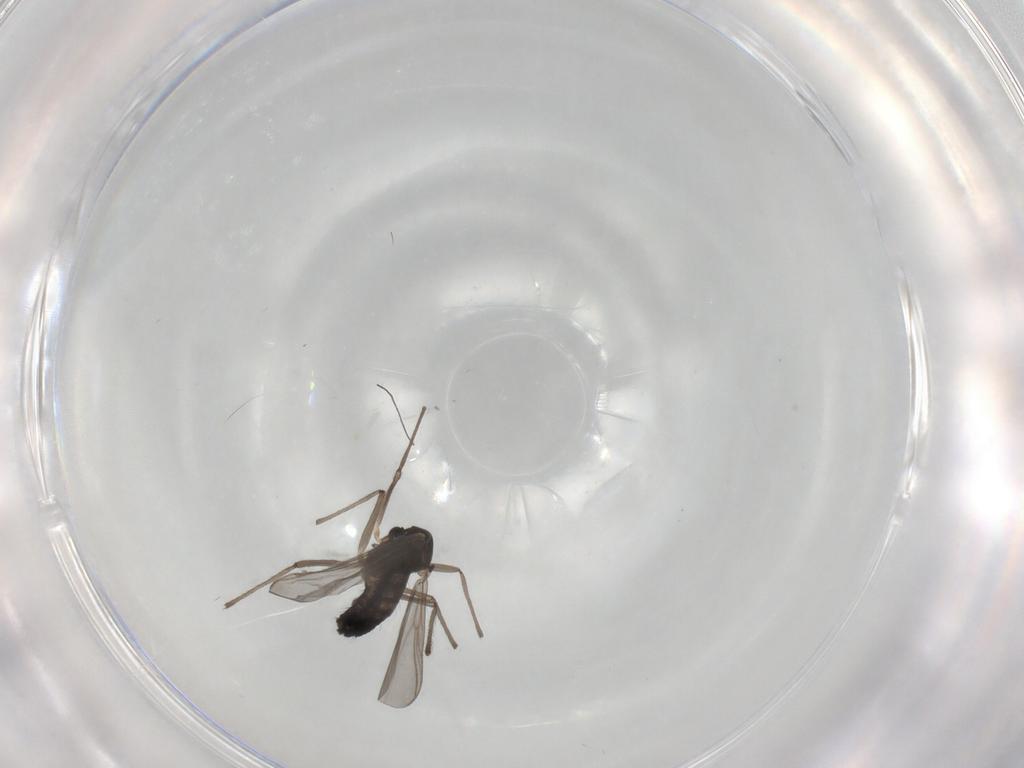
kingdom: Animalia
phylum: Arthropoda
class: Insecta
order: Diptera
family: Chironomidae
